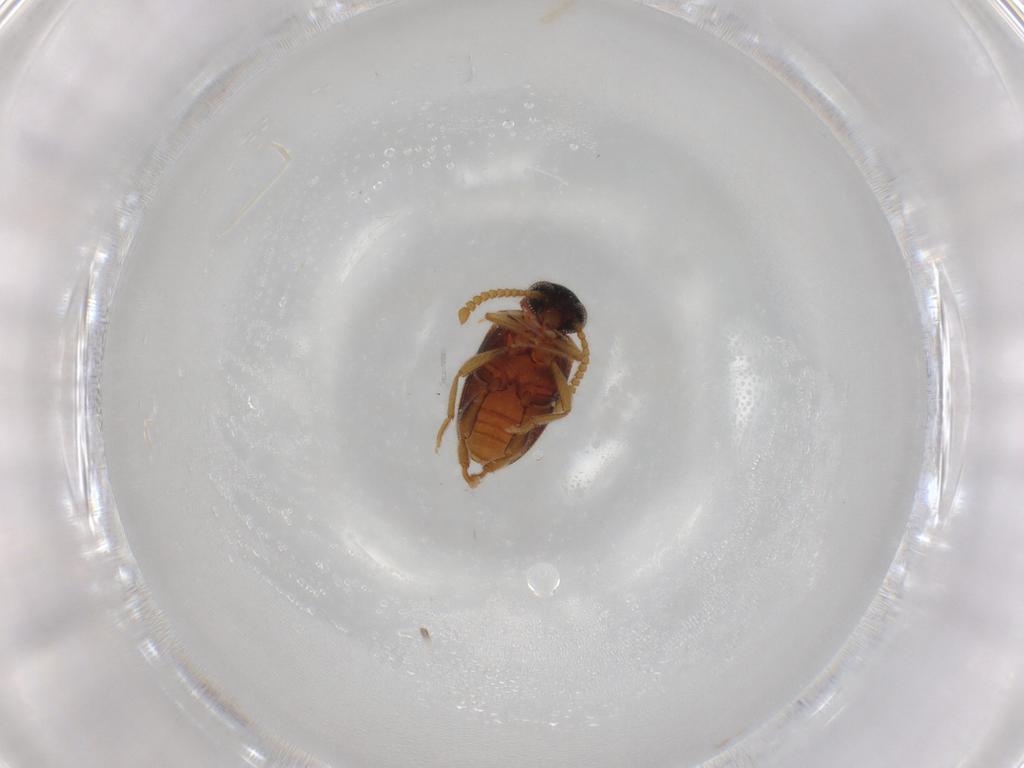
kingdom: Animalia
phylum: Arthropoda
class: Insecta
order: Coleoptera
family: Aderidae
